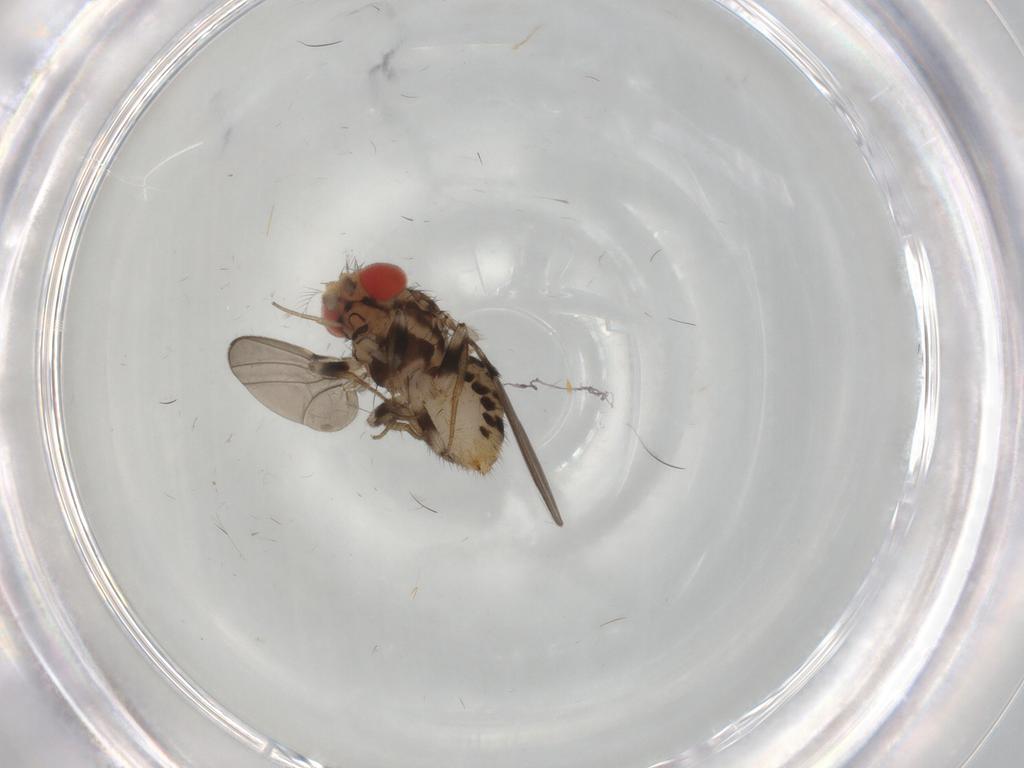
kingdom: Animalia
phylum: Arthropoda
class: Insecta
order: Diptera
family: Drosophilidae
